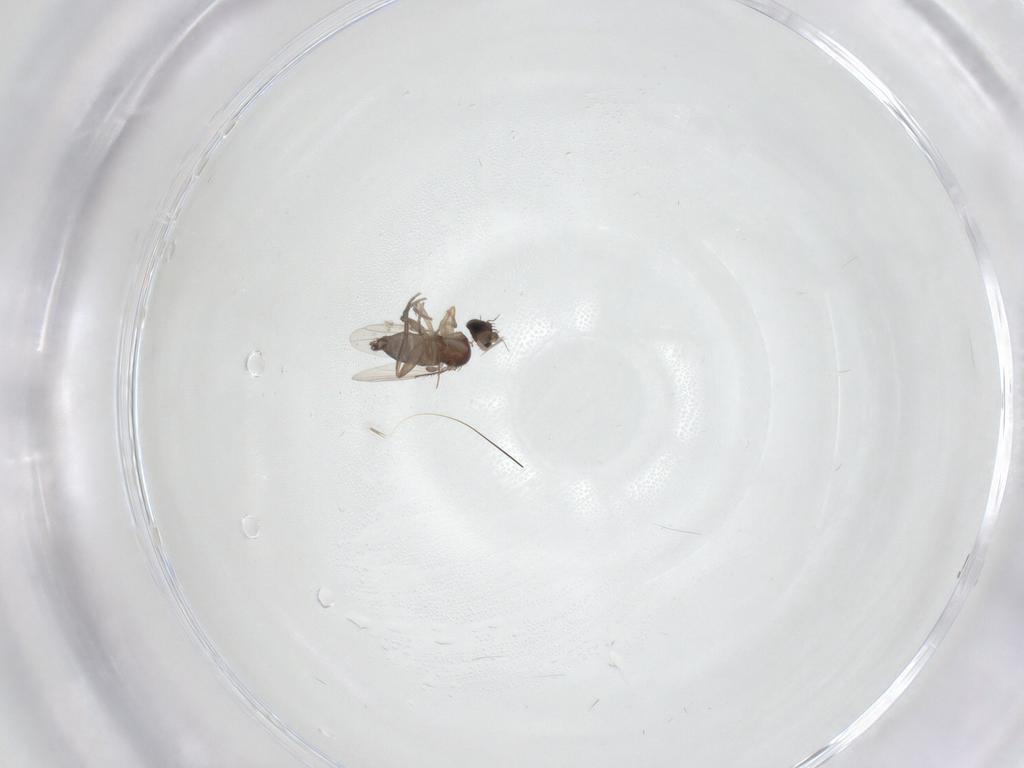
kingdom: Animalia
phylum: Arthropoda
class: Insecta
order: Diptera
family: Phoridae
